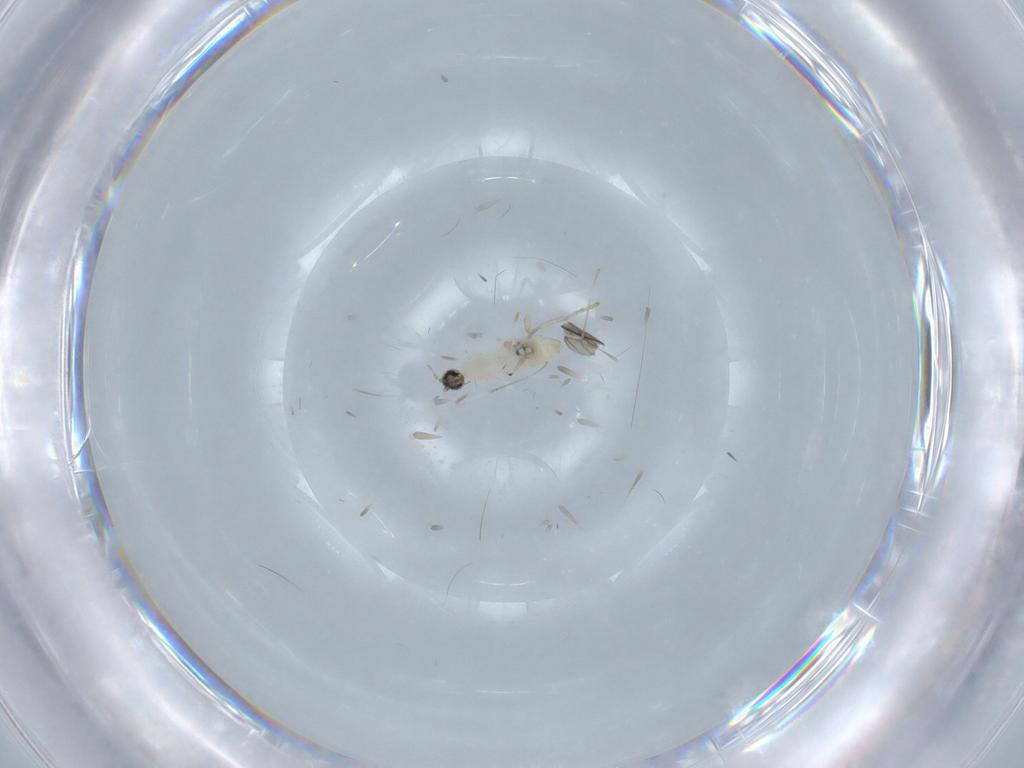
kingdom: Animalia
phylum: Arthropoda
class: Insecta
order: Diptera
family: Cecidomyiidae
